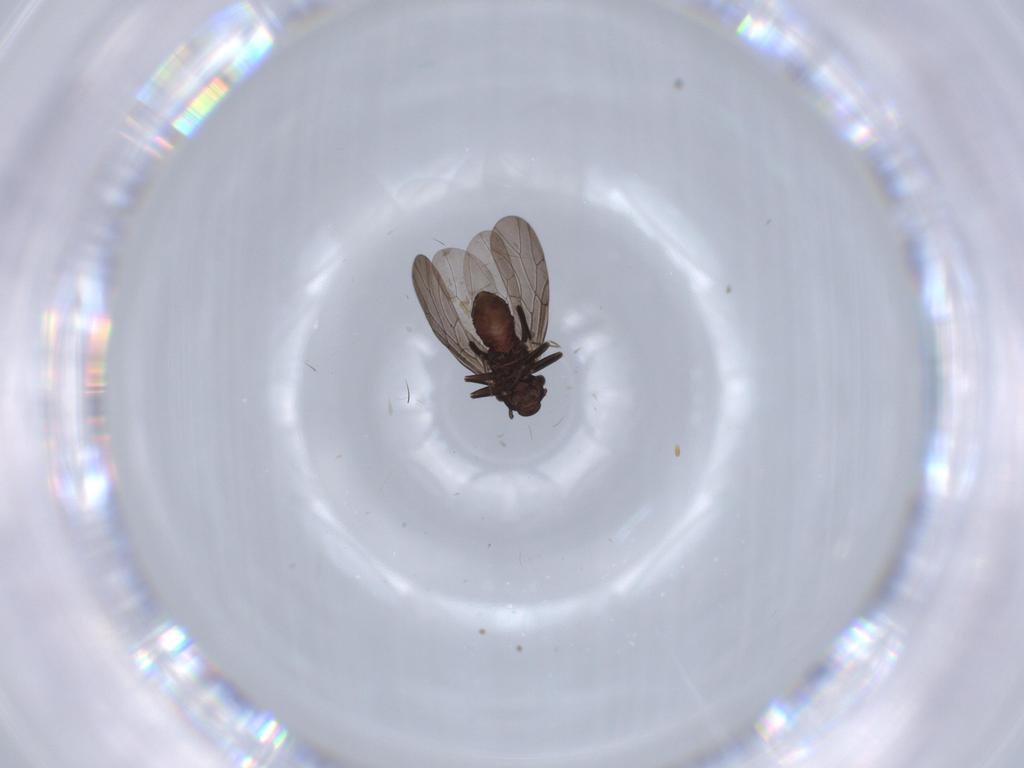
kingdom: Animalia
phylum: Arthropoda
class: Insecta
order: Psocodea
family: Lepidopsocidae
